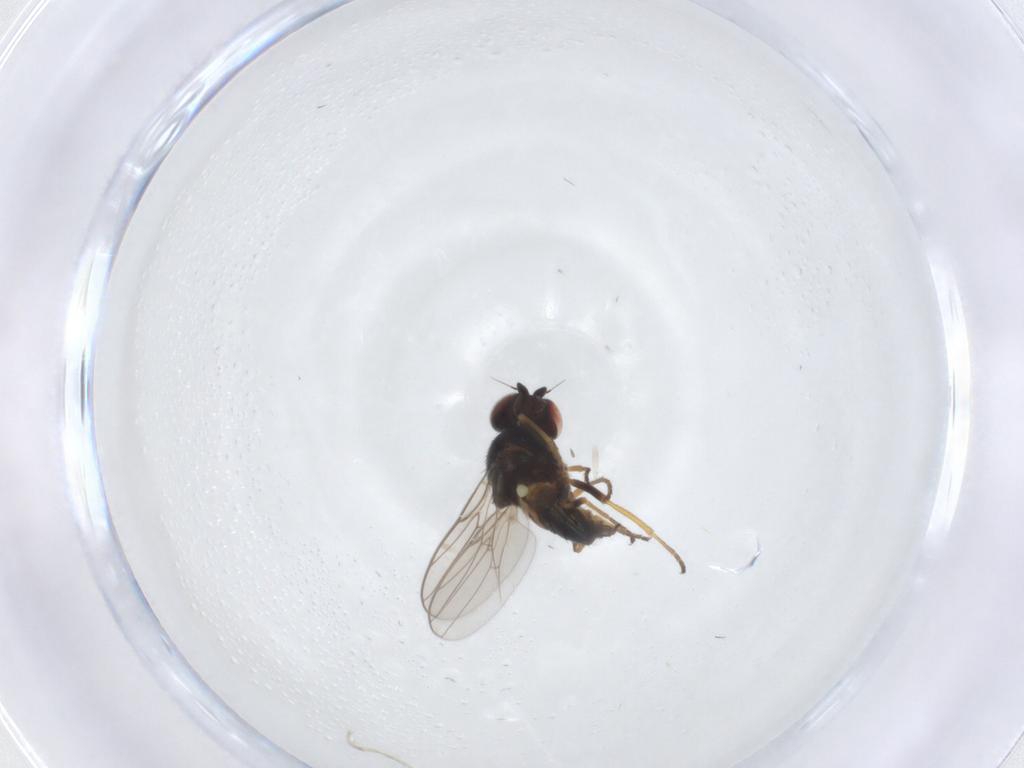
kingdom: Animalia
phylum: Arthropoda
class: Insecta
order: Diptera
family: Chloropidae
